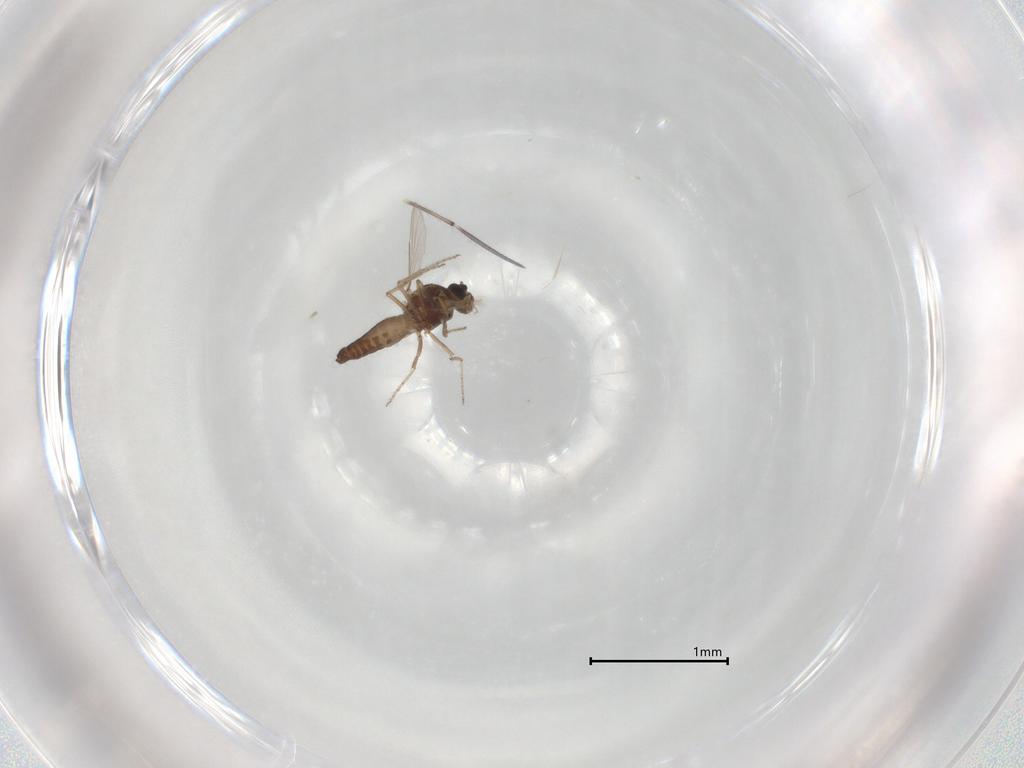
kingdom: Animalia
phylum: Arthropoda
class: Insecta
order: Diptera
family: Ceratopogonidae
